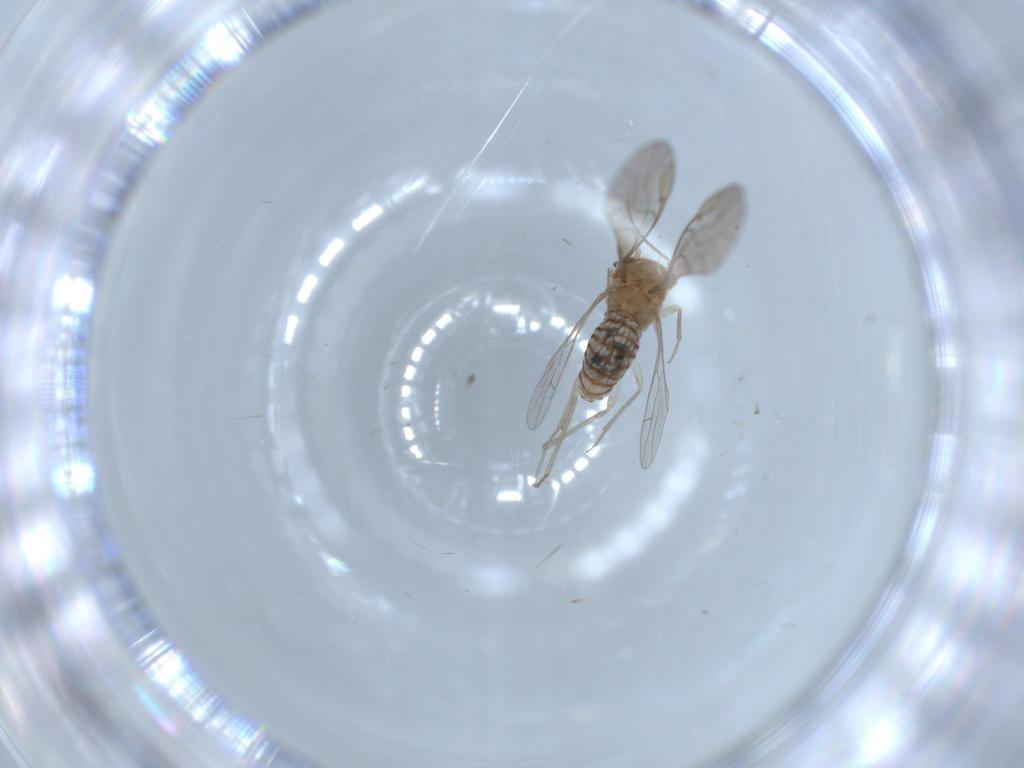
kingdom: Animalia
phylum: Arthropoda
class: Insecta
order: Psocodea
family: Lachesillidae
